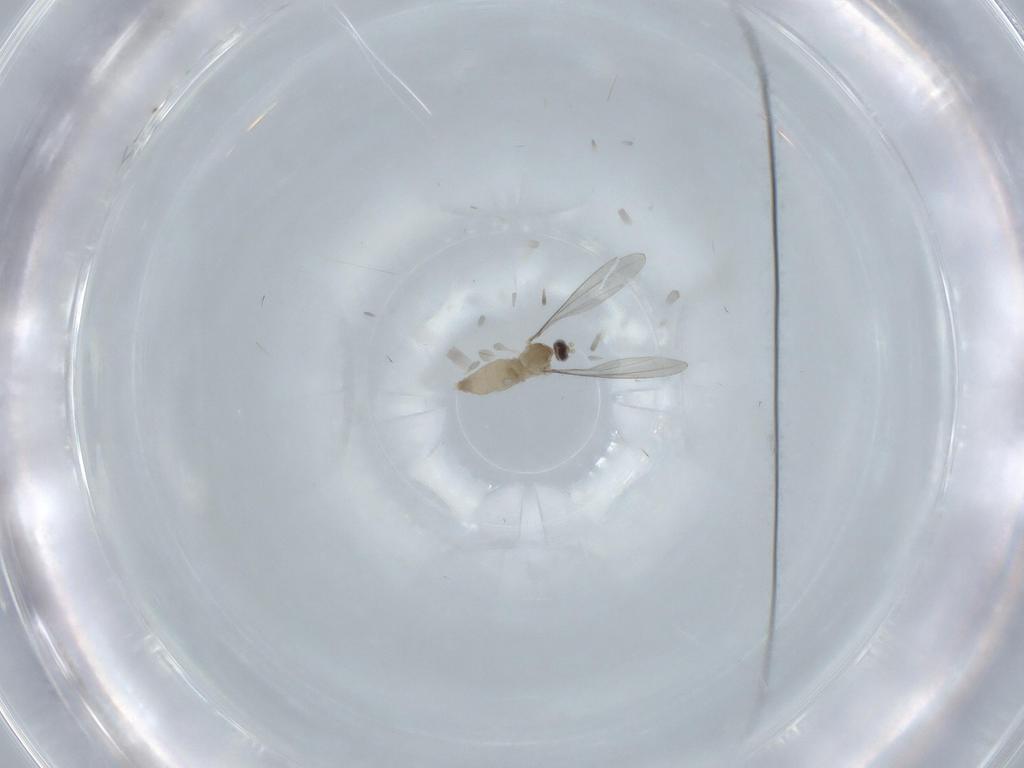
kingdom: Animalia
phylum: Arthropoda
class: Insecta
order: Diptera
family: Cecidomyiidae
